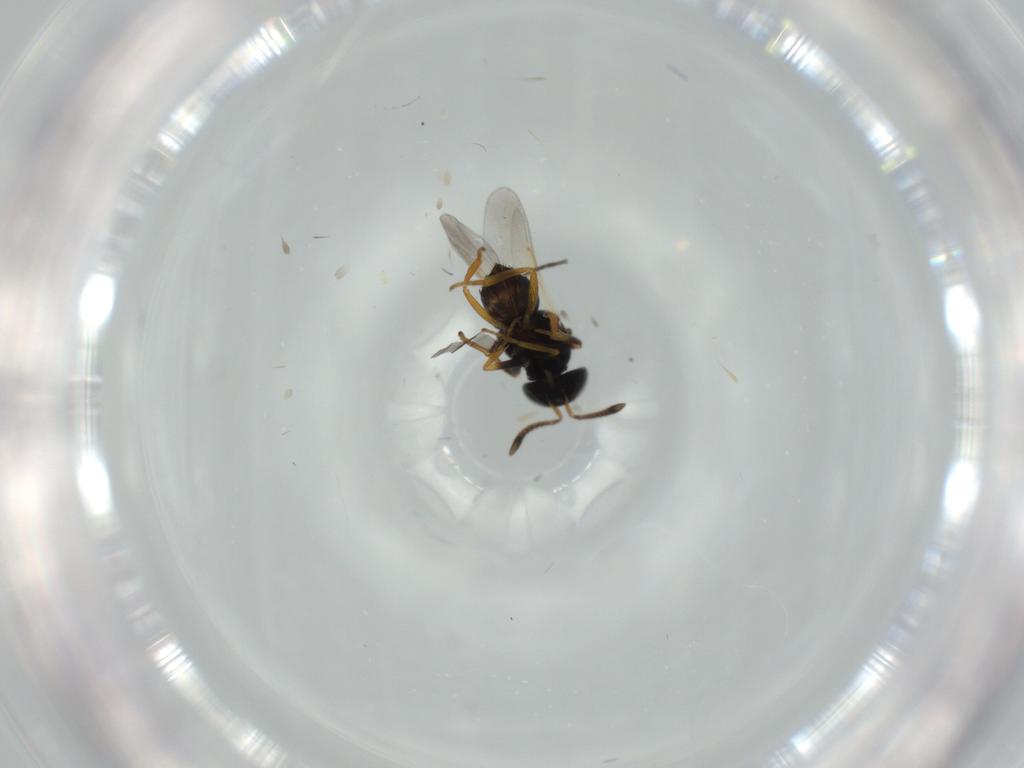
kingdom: Animalia
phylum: Arthropoda
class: Insecta
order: Hymenoptera
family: Encyrtidae
